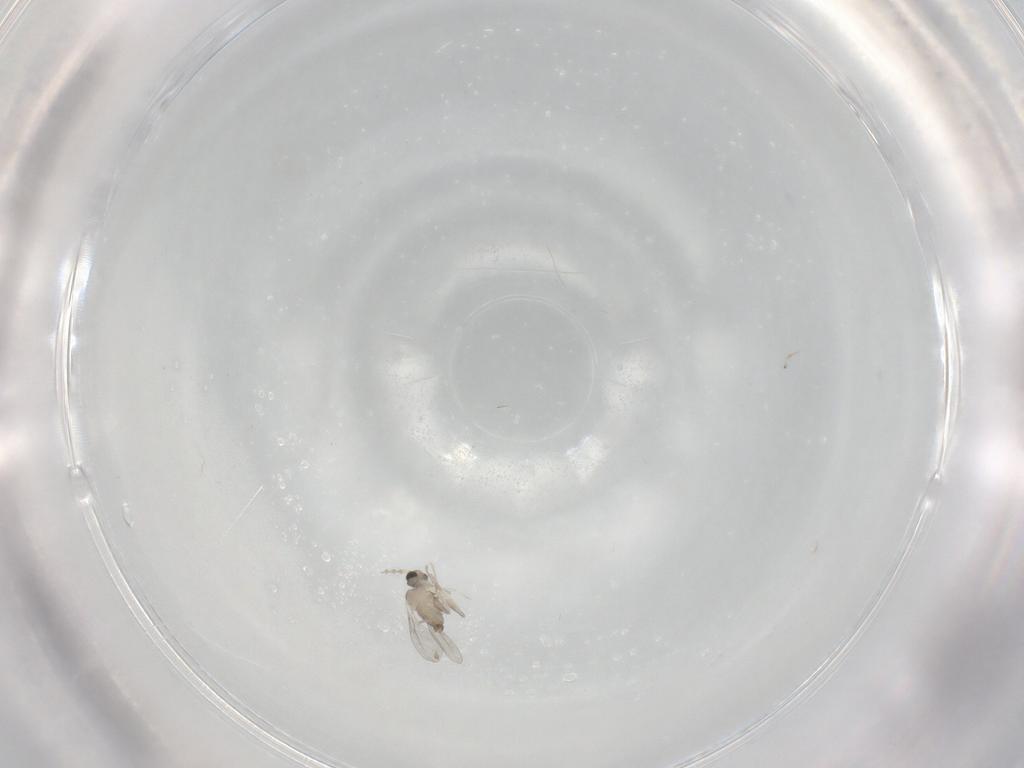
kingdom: Animalia
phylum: Arthropoda
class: Insecta
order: Diptera
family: Cecidomyiidae
